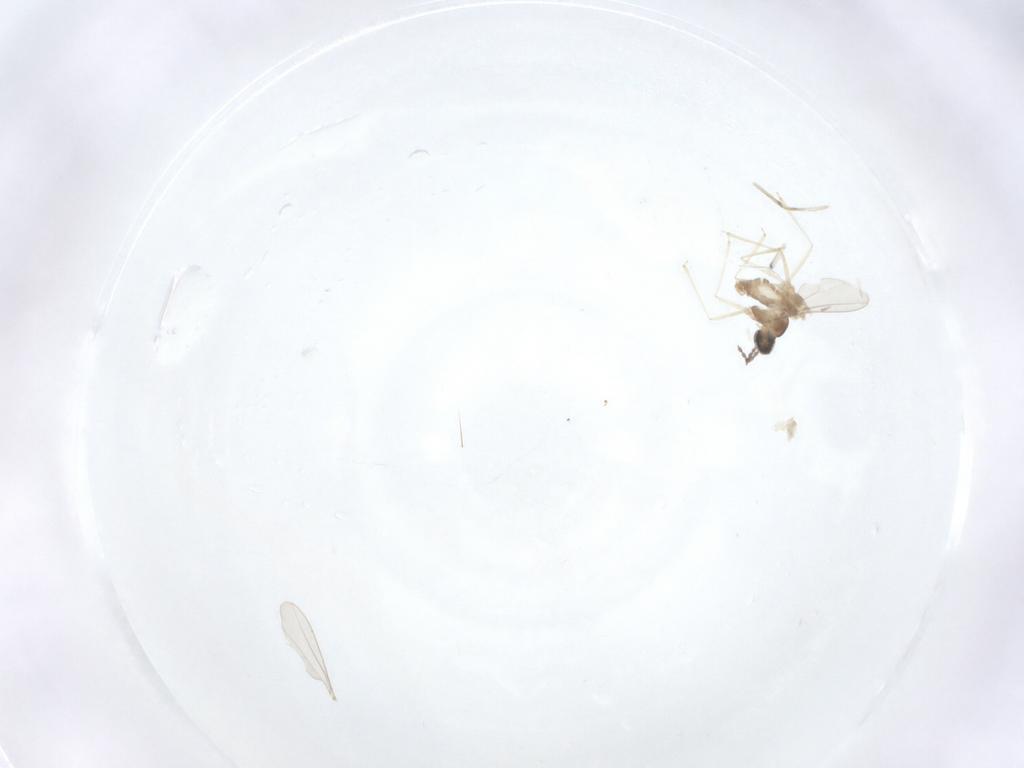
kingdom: Animalia
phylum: Arthropoda
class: Insecta
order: Diptera
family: Cecidomyiidae
